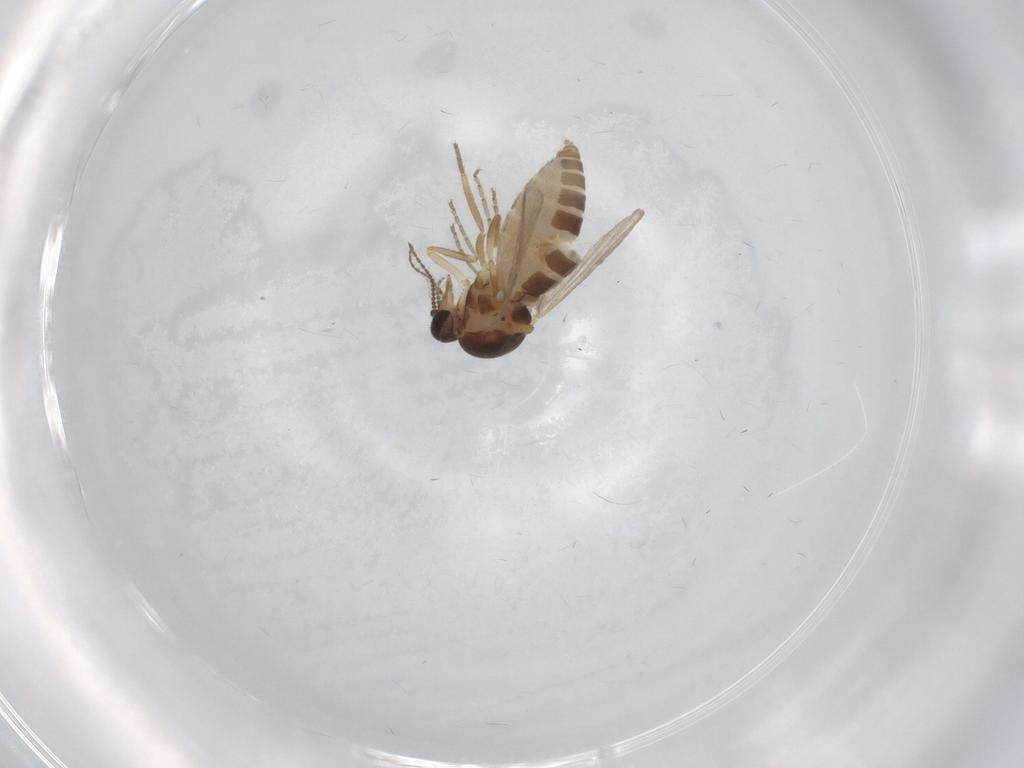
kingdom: Animalia
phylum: Arthropoda
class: Insecta
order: Diptera
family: Ceratopogonidae
